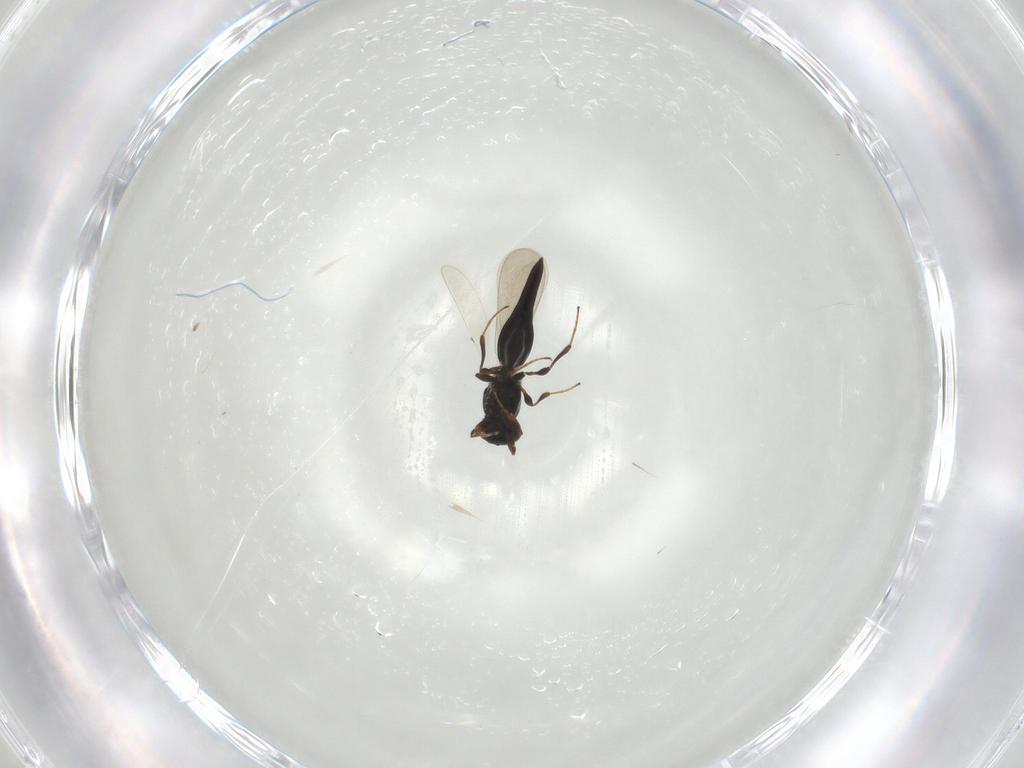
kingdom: Animalia
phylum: Arthropoda
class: Insecta
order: Hymenoptera
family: Platygastridae
